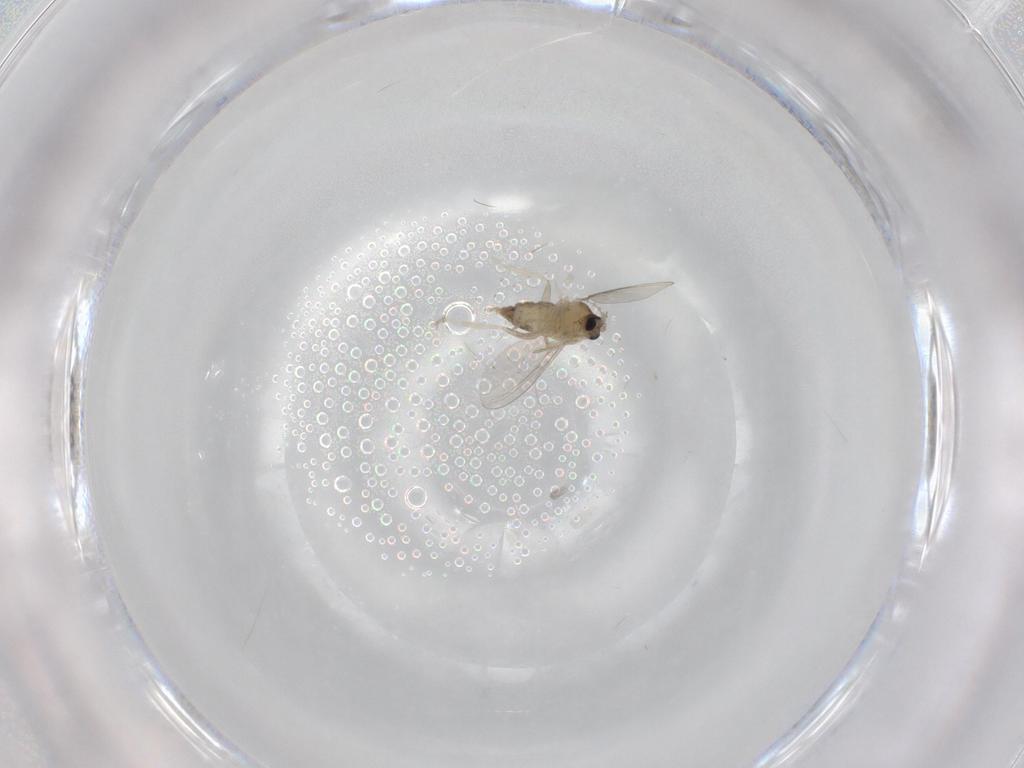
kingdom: Animalia
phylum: Arthropoda
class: Insecta
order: Diptera
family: Cecidomyiidae
